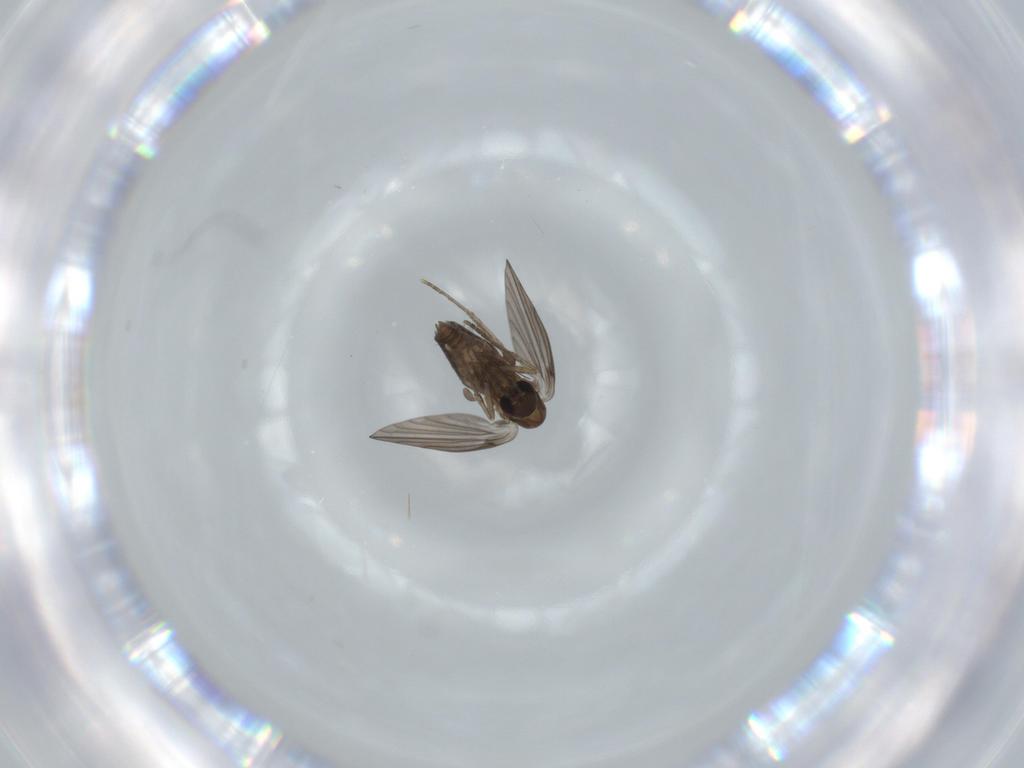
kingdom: Animalia
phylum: Arthropoda
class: Insecta
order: Diptera
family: Psychodidae
